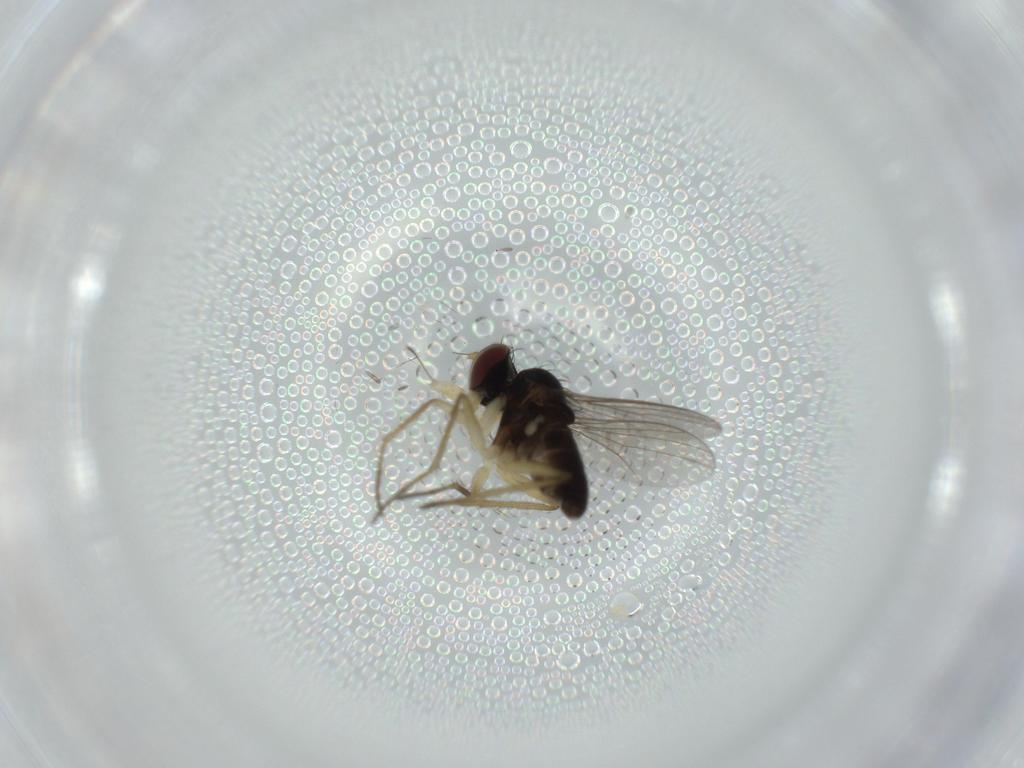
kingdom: Animalia
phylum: Arthropoda
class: Insecta
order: Diptera
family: Dolichopodidae
